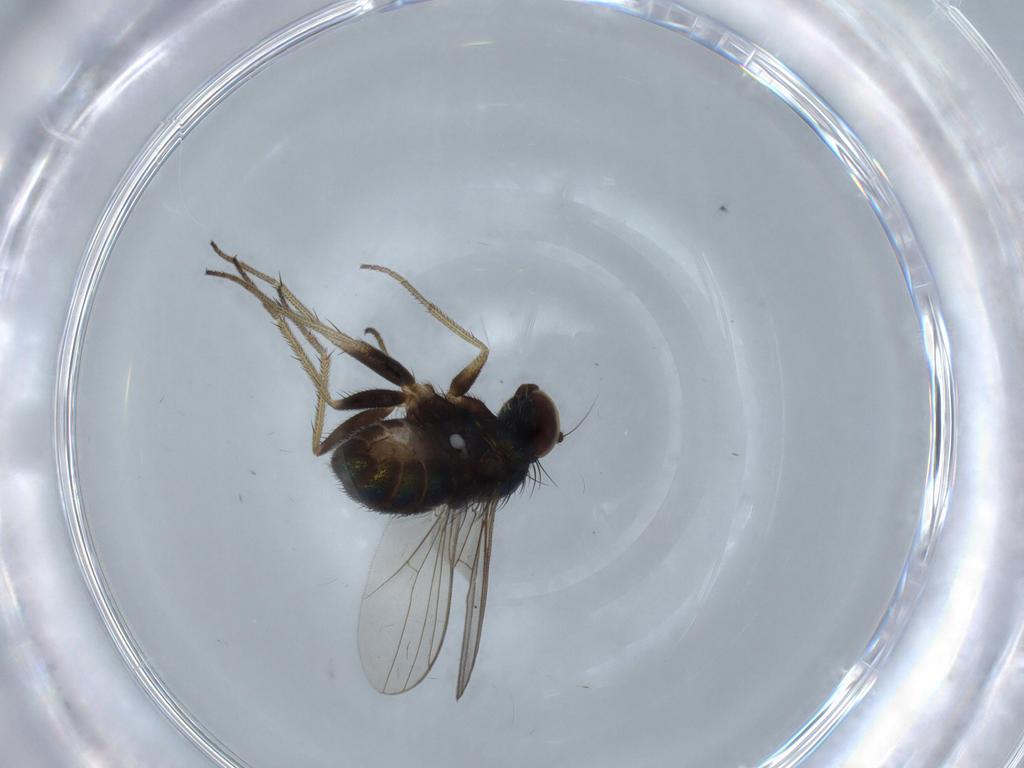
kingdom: Animalia
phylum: Arthropoda
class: Insecta
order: Diptera
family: Dolichopodidae
